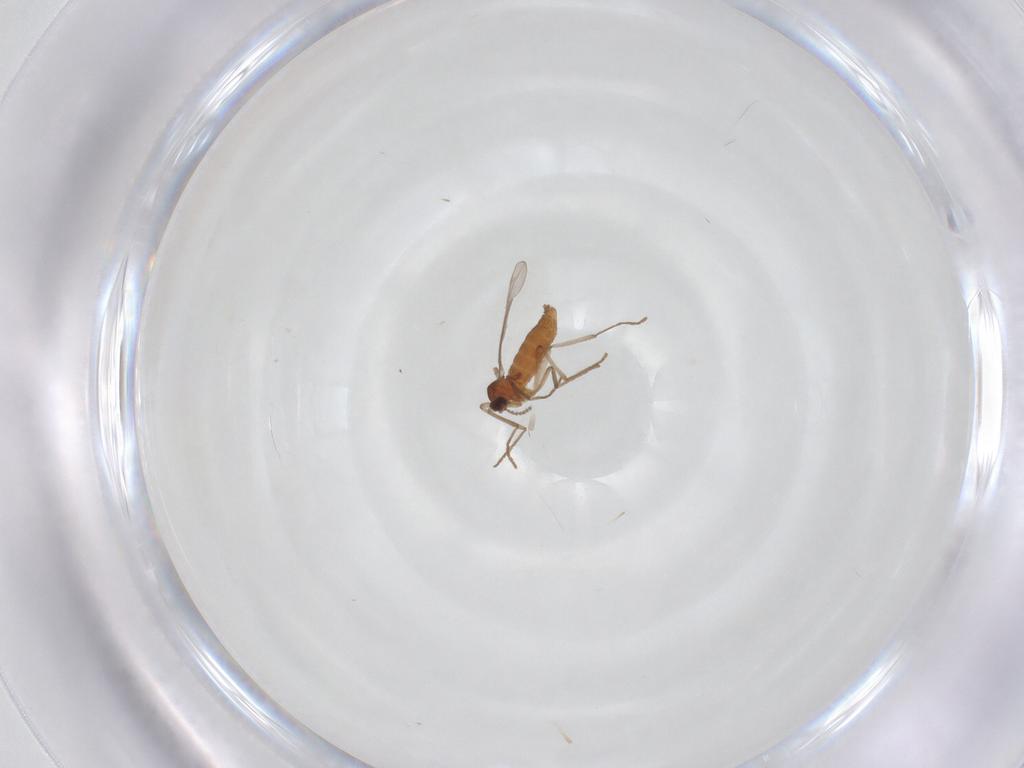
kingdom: Animalia
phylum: Arthropoda
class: Insecta
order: Diptera
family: Cecidomyiidae
